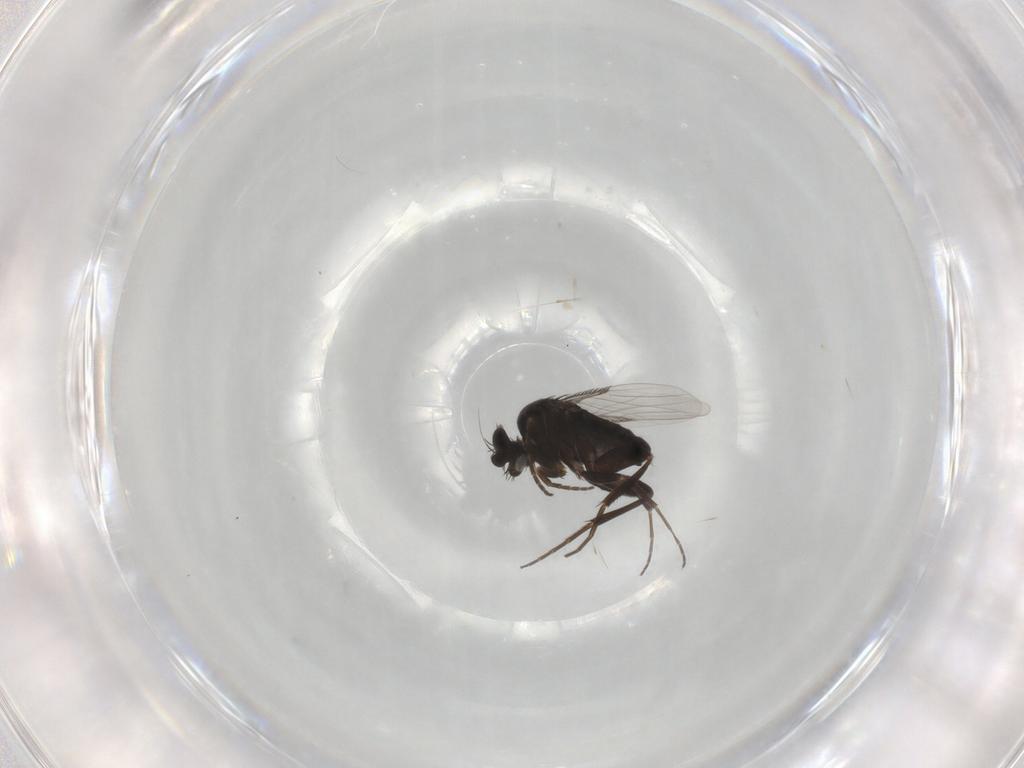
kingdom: Animalia
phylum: Arthropoda
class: Insecta
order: Diptera
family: Phoridae
